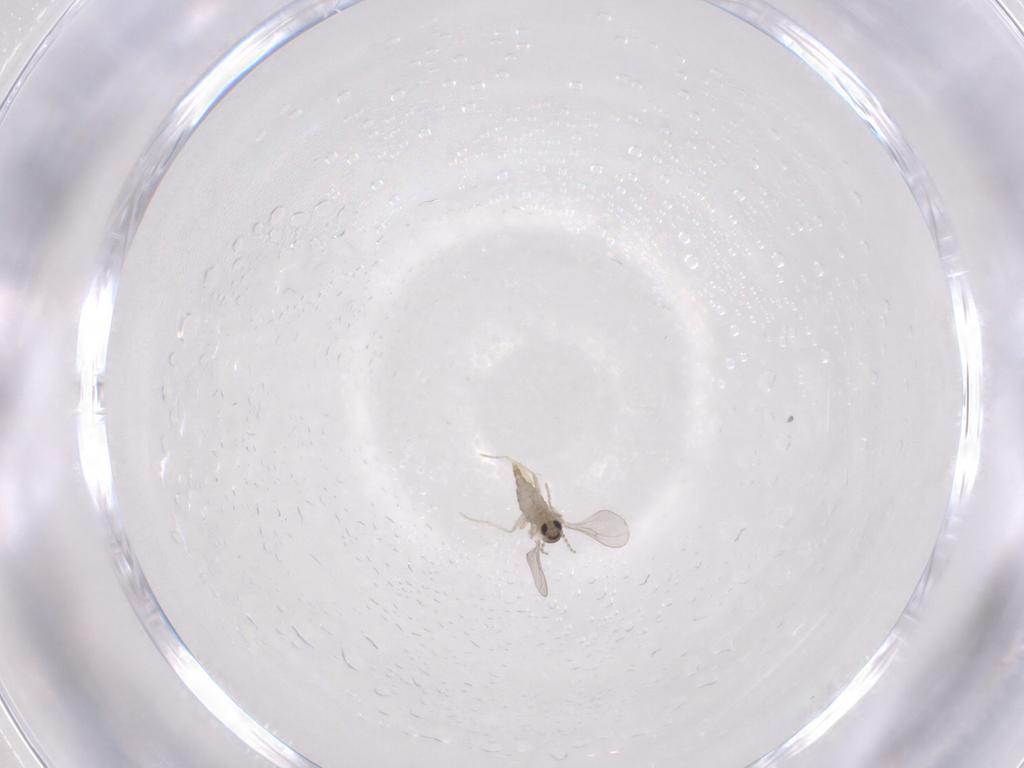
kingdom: Animalia
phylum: Arthropoda
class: Insecta
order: Diptera
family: Cecidomyiidae
